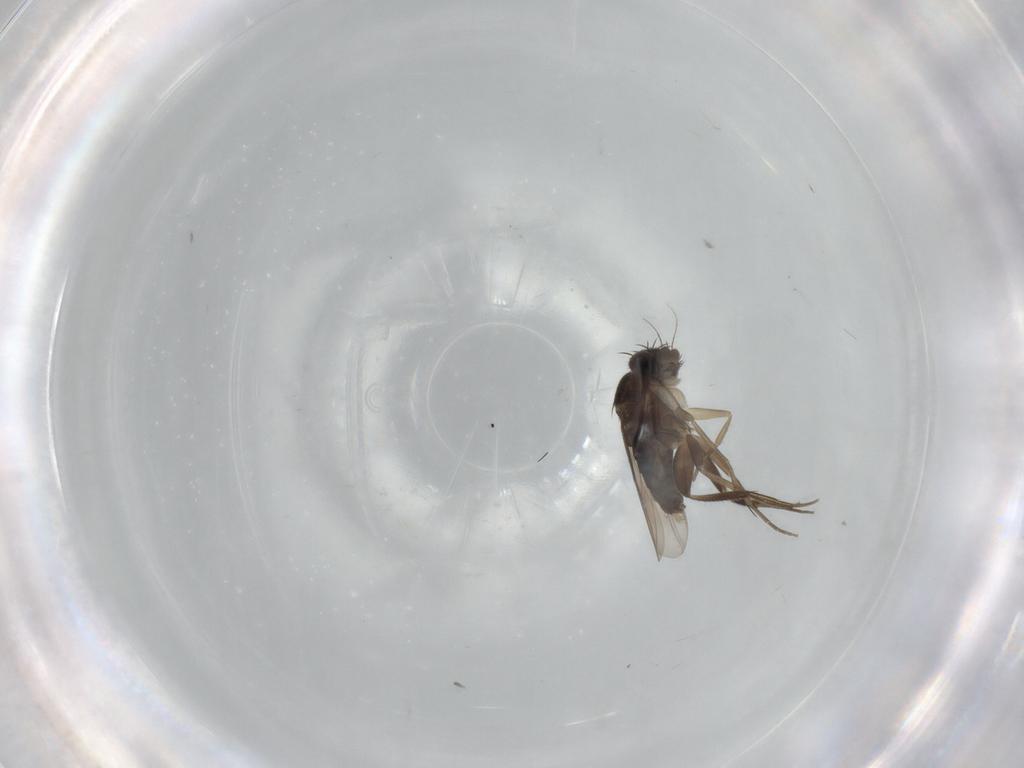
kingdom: Animalia
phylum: Arthropoda
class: Insecta
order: Diptera
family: Phoridae
